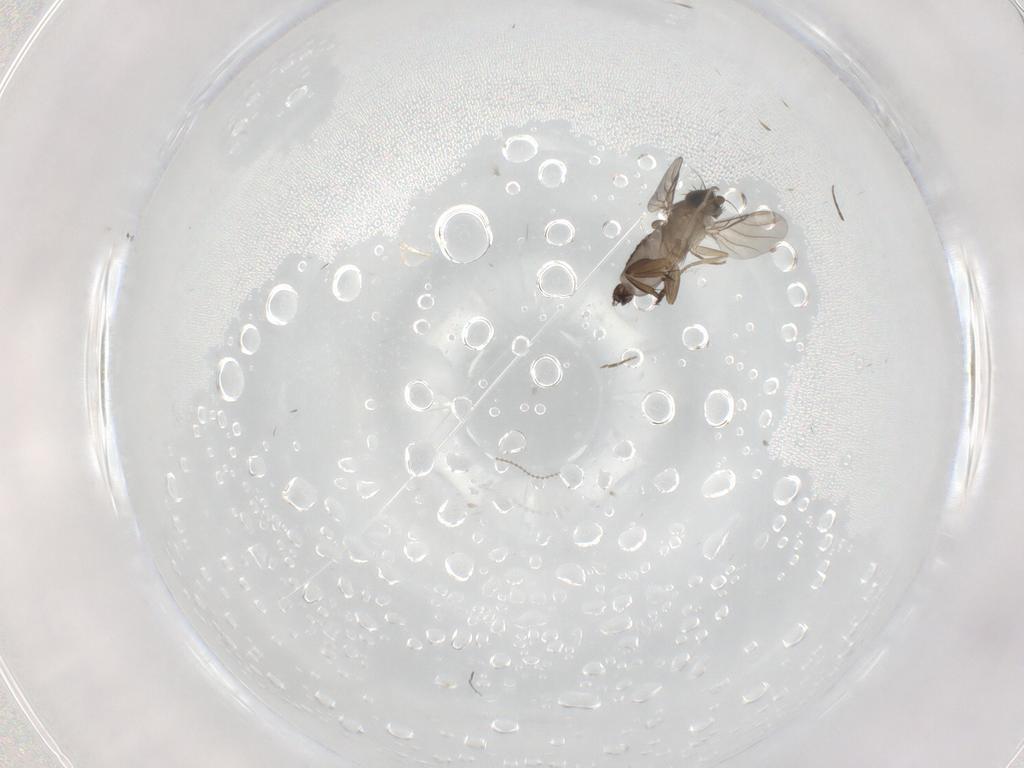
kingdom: Animalia
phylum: Arthropoda
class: Insecta
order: Diptera
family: Phoridae
